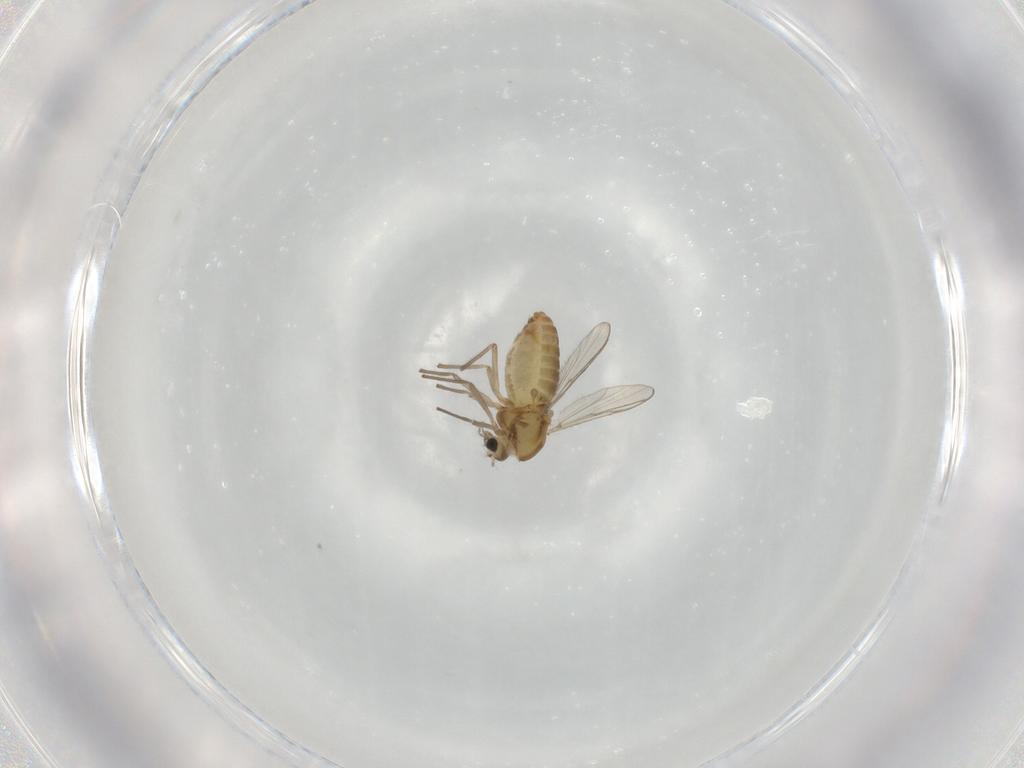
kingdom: Animalia
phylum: Arthropoda
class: Insecta
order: Diptera
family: Chironomidae
